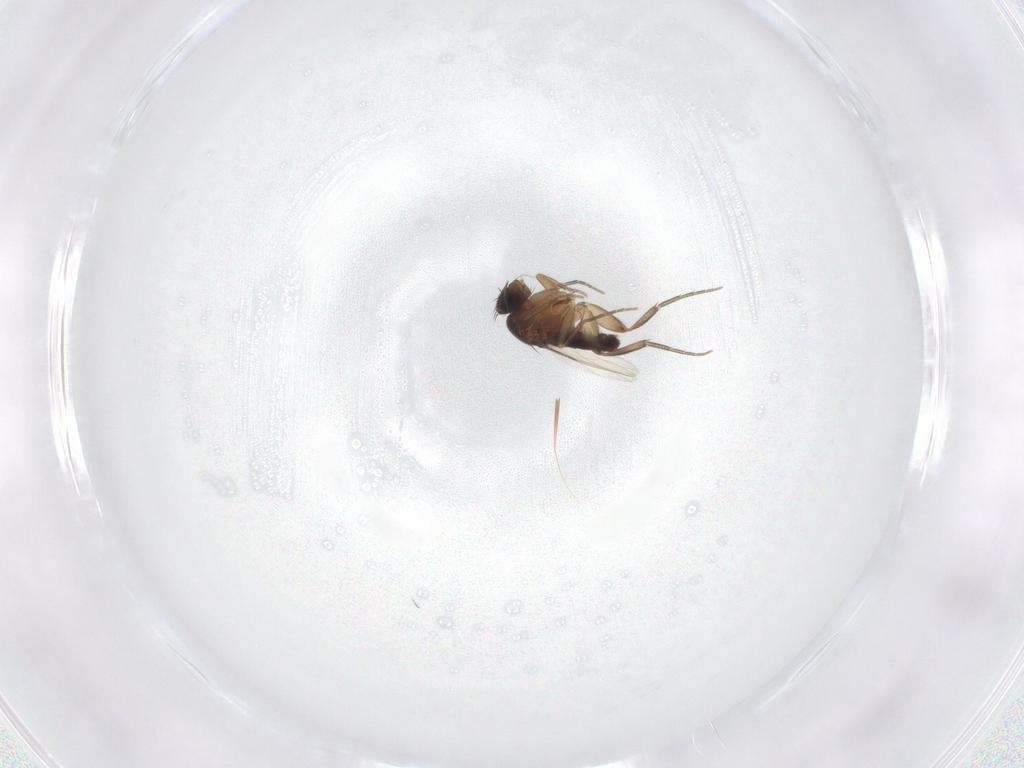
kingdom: Animalia
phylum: Arthropoda
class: Insecta
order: Diptera
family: Phoridae
